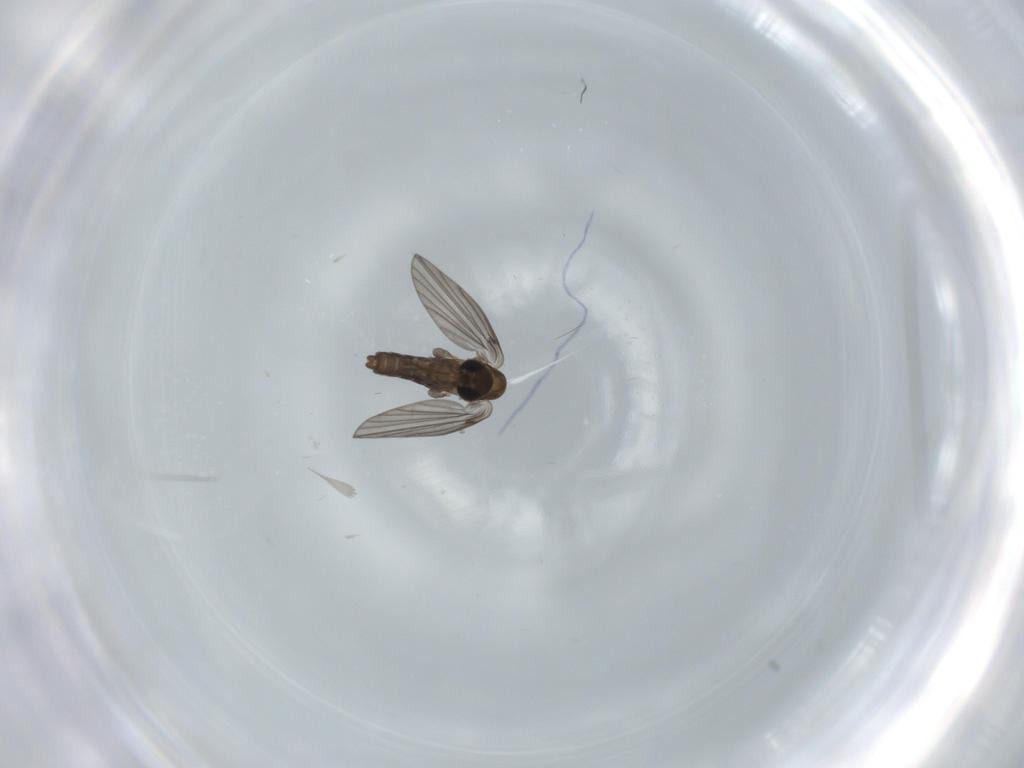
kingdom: Animalia
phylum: Arthropoda
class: Insecta
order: Diptera
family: Psychodidae
